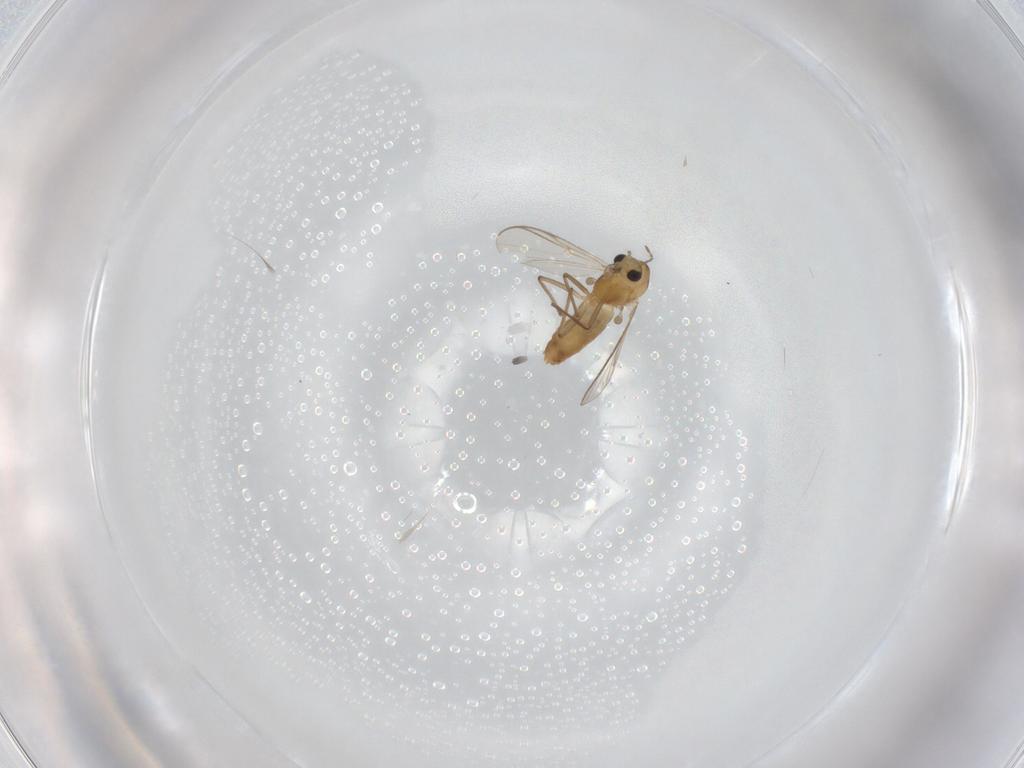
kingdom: Animalia
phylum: Arthropoda
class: Insecta
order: Diptera
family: Chironomidae
